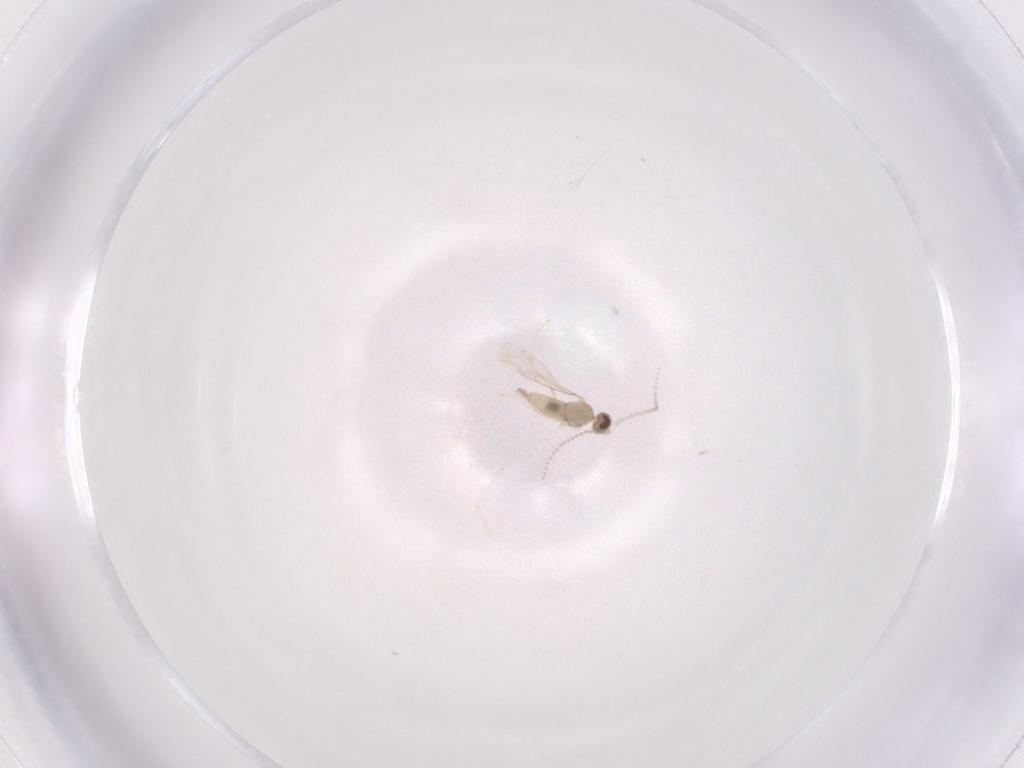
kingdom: Animalia
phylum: Arthropoda
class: Insecta
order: Diptera
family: Cecidomyiidae
